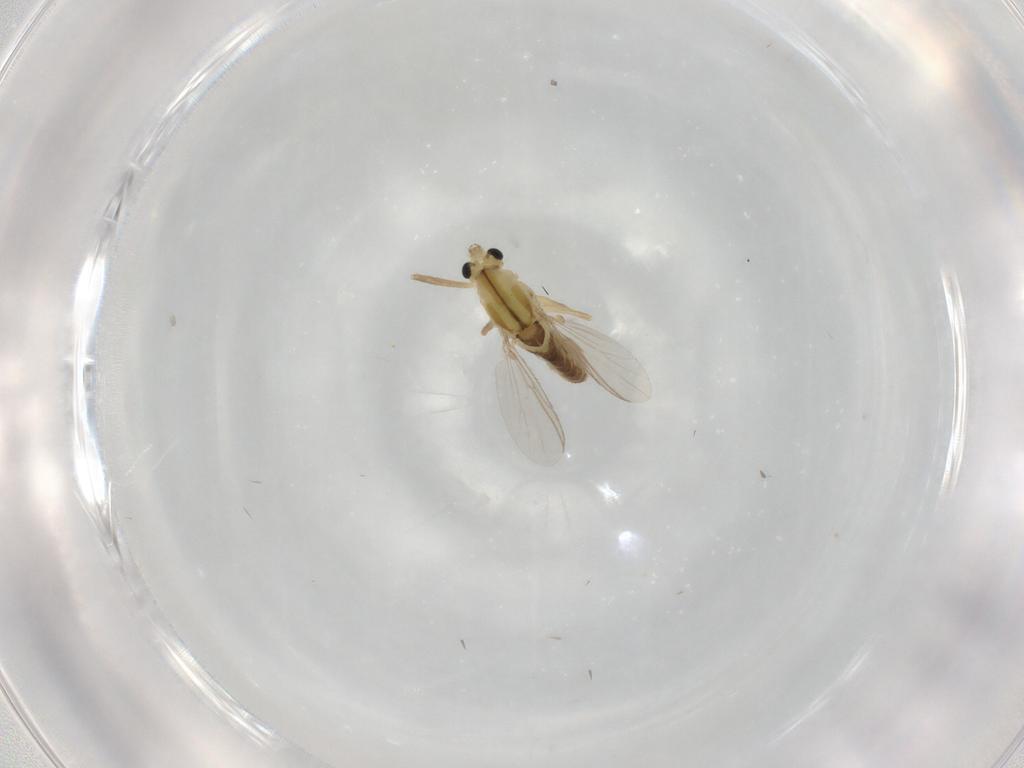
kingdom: Animalia
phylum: Arthropoda
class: Insecta
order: Diptera
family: Chironomidae
